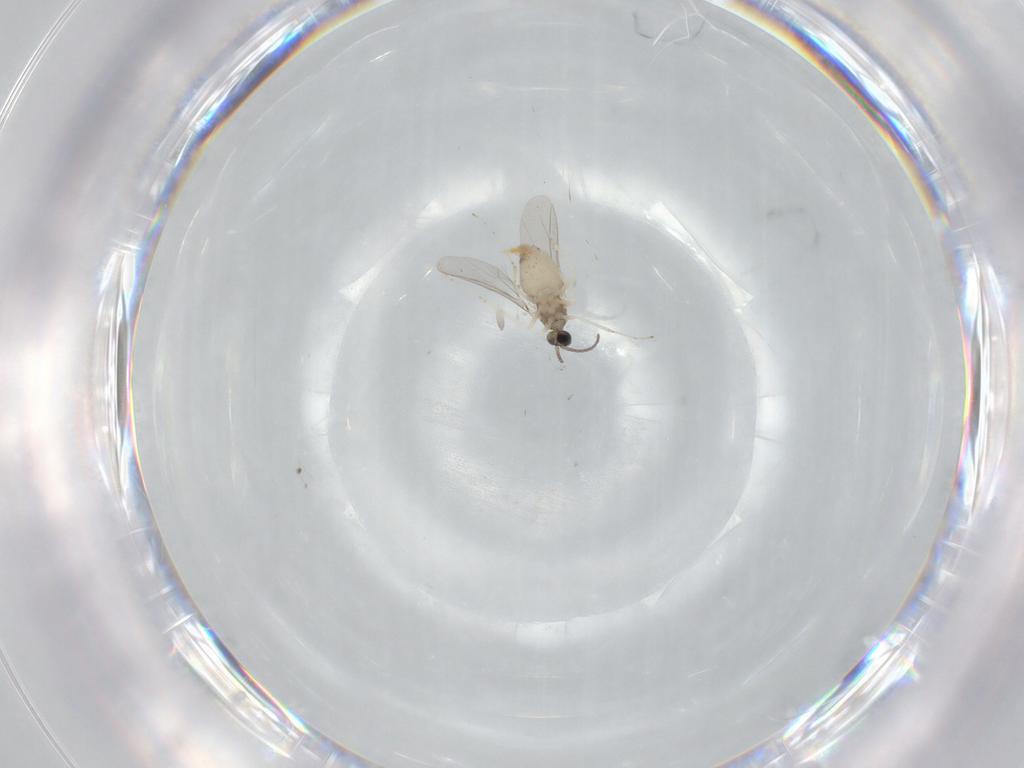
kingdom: Animalia
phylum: Arthropoda
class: Insecta
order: Diptera
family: Cecidomyiidae
